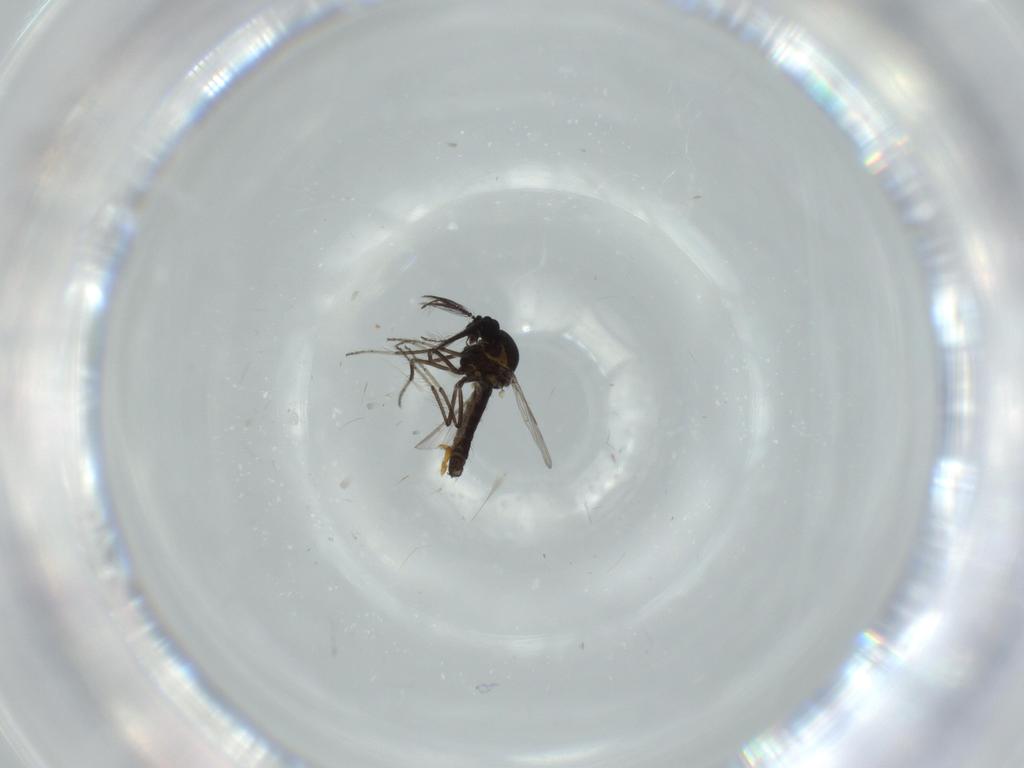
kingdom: Animalia
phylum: Arthropoda
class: Insecta
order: Diptera
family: Ceratopogonidae
